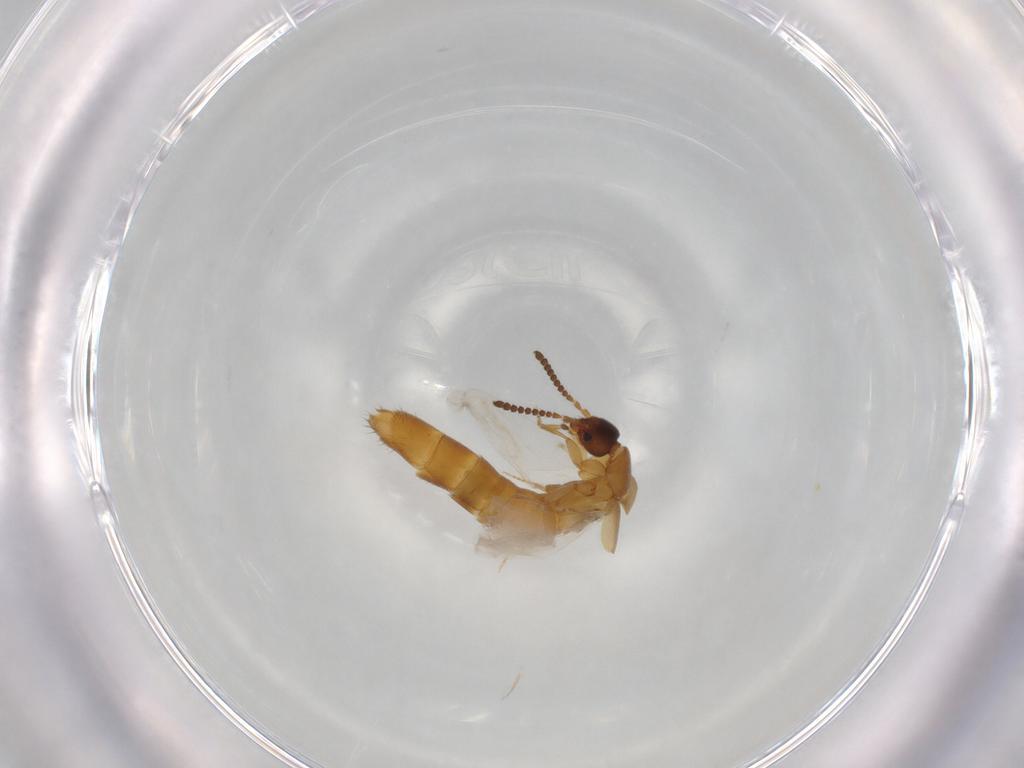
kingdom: Animalia
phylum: Arthropoda
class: Insecta
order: Coleoptera
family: Staphylinidae
